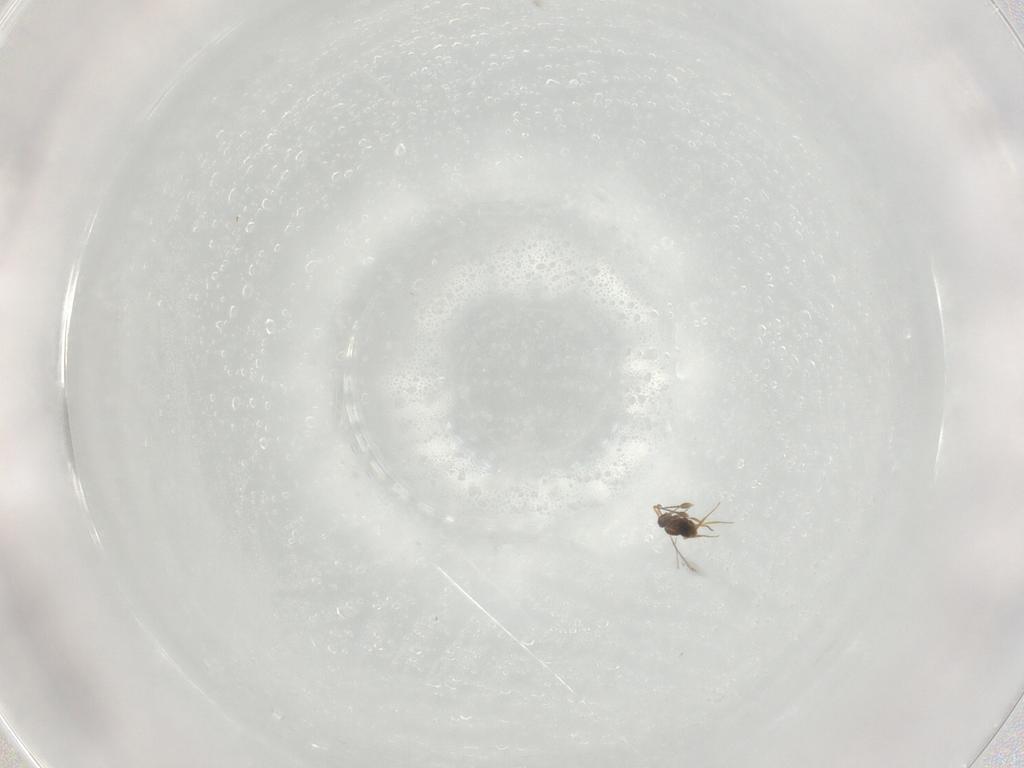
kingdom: Animalia
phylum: Arthropoda
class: Insecta
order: Hymenoptera
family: Mymaridae
